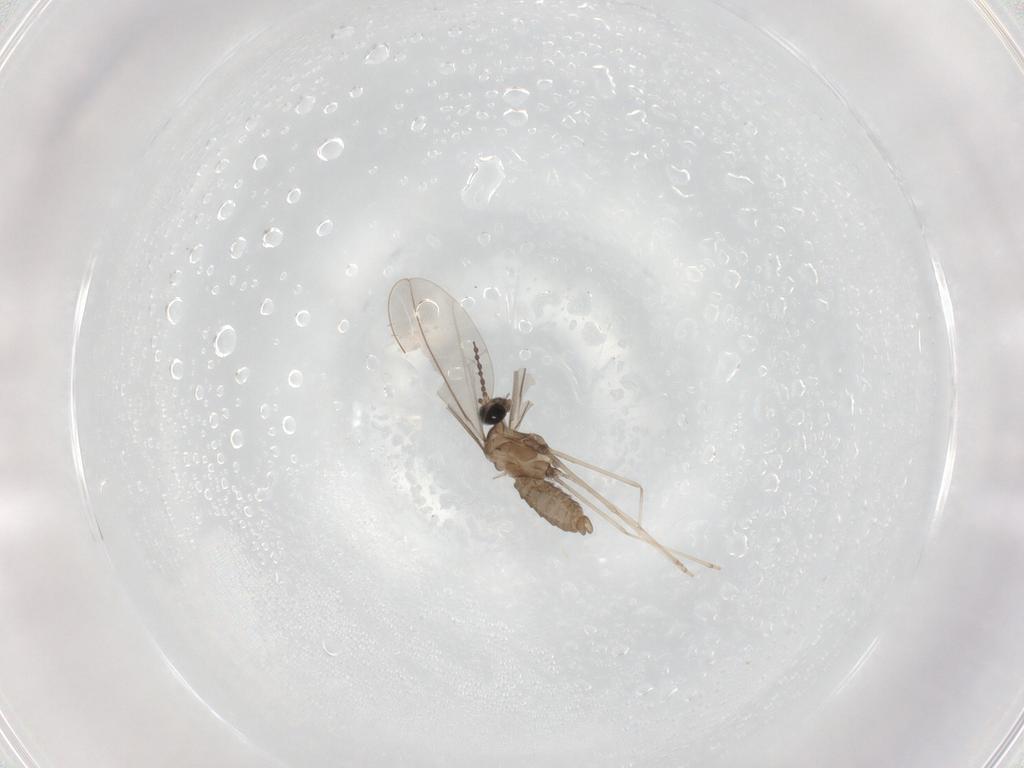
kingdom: Animalia
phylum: Arthropoda
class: Insecta
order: Diptera
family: Cecidomyiidae
